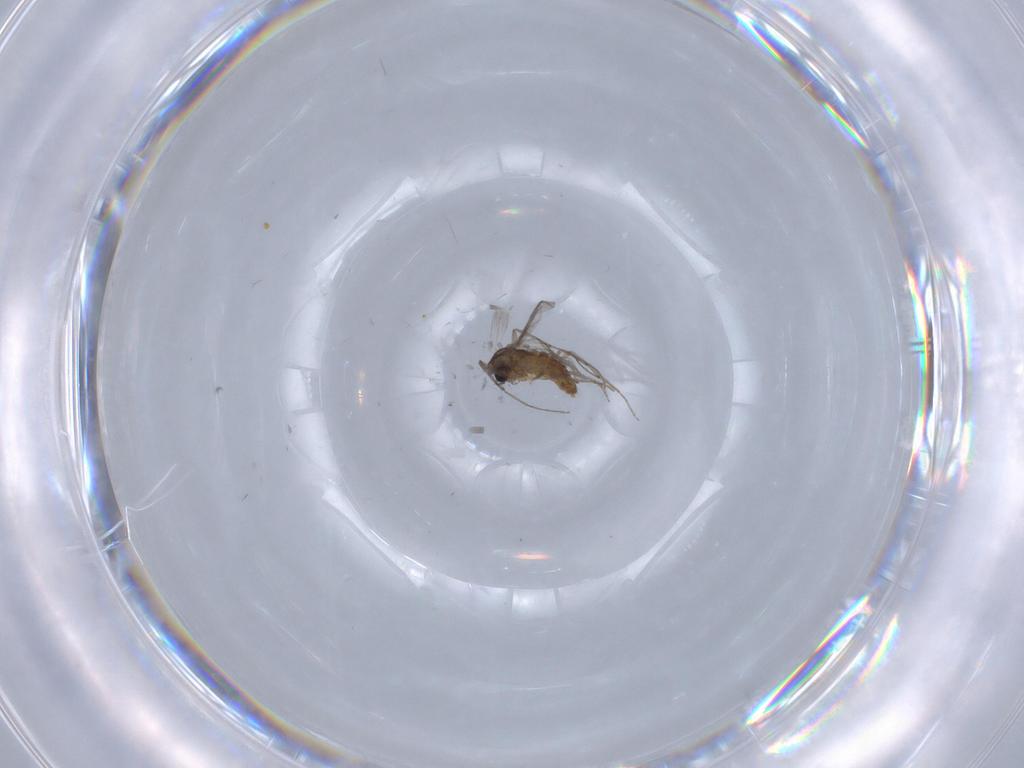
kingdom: Animalia
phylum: Arthropoda
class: Insecta
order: Diptera
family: Chironomidae
